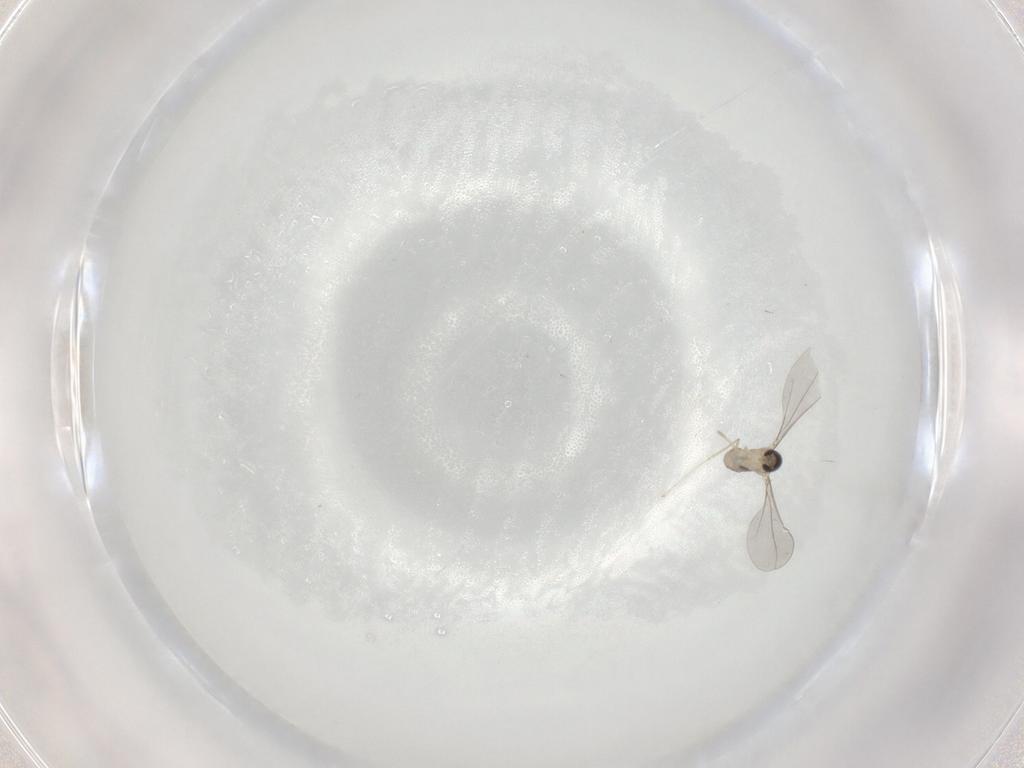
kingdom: Animalia
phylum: Arthropoda
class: Insecta
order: Diptera
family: Cecidomyiidae
